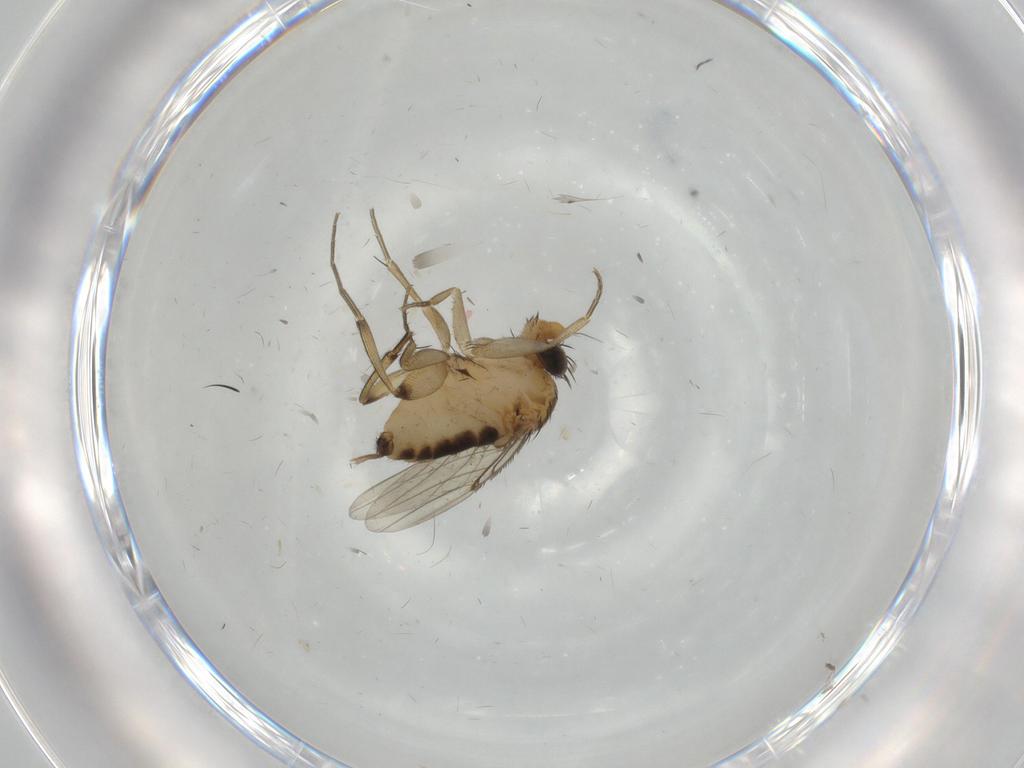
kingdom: Animalia
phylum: Arthropoda
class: Insecta
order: Diptera
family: Phoridae
